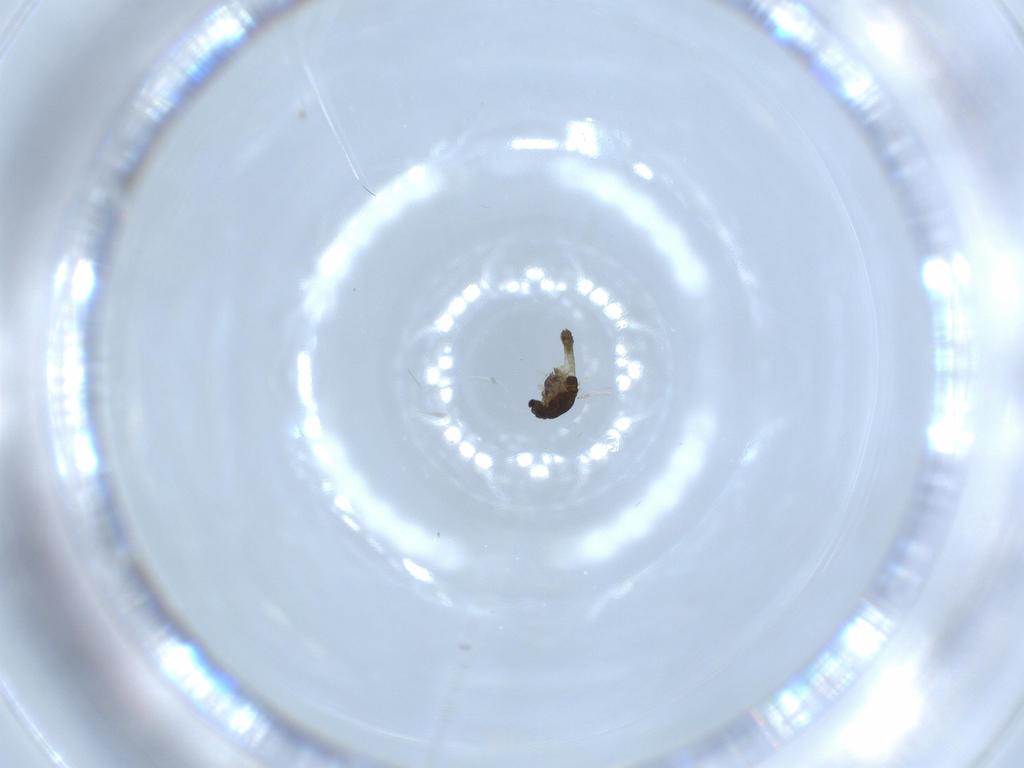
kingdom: Animalia
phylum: Arthropoda
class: Insecta
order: Diptera
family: Chironomidae
